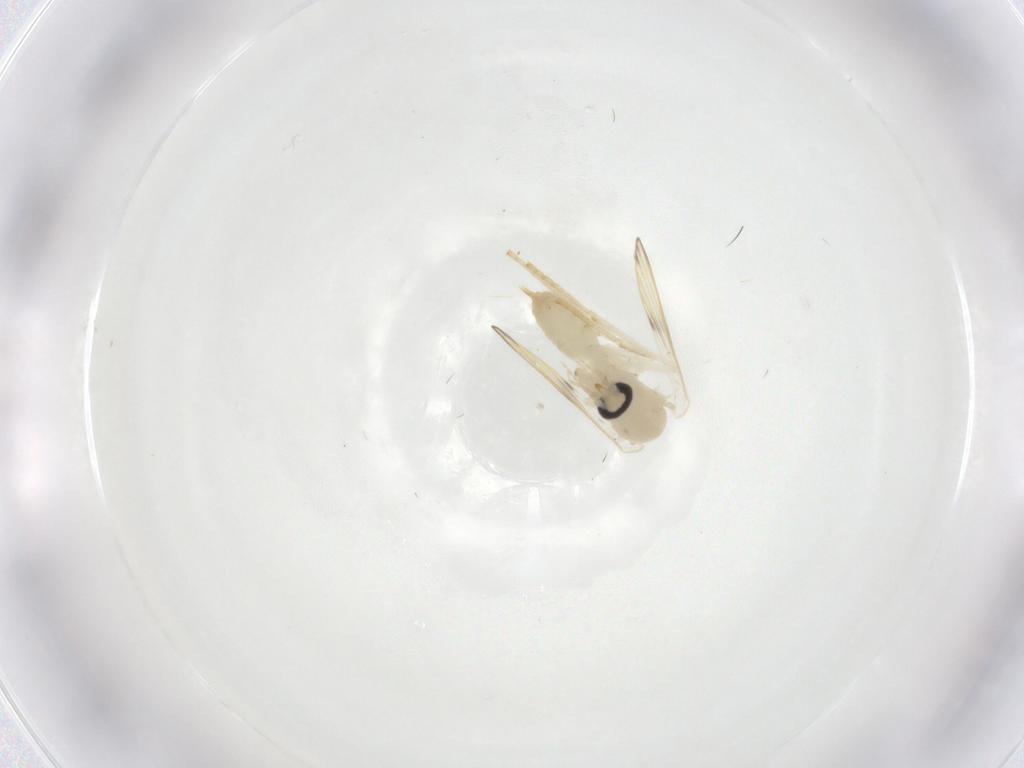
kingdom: Animalia
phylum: Arthropoda
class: Insecta
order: Diptera
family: Psychodidae
